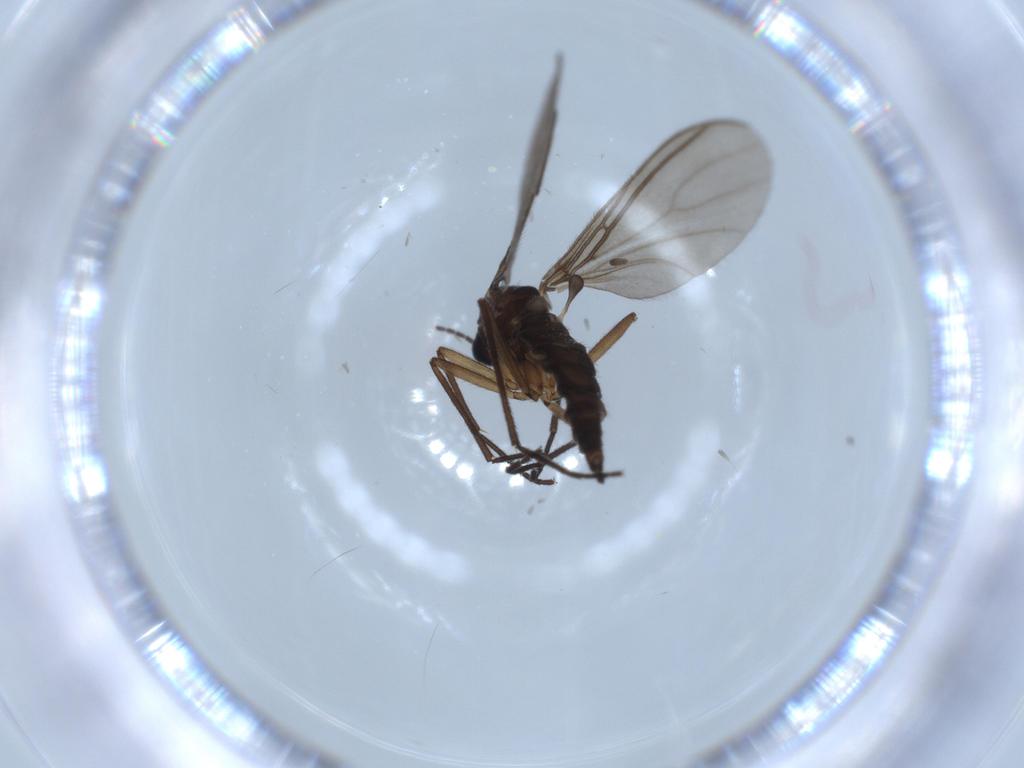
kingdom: Animalia
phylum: Arthropoda
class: Insecta
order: Diptera
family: Sciaridae
